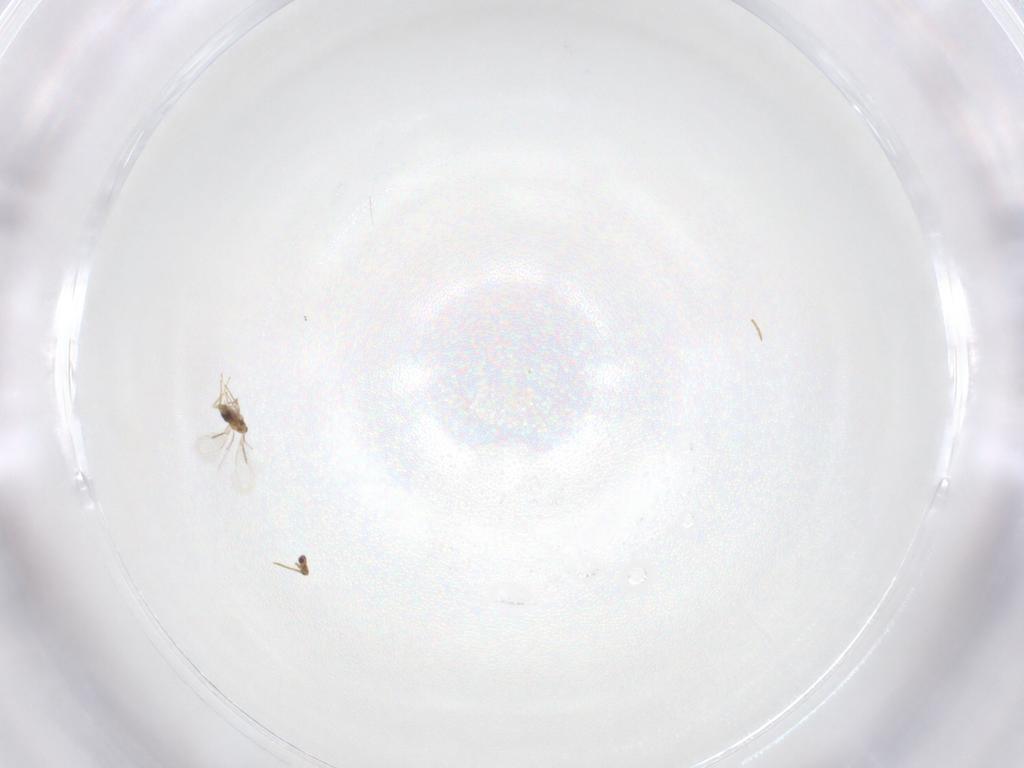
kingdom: Animalia
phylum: Arthropoda
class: Insecta
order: Hymenoptera
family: Aphelinidae
